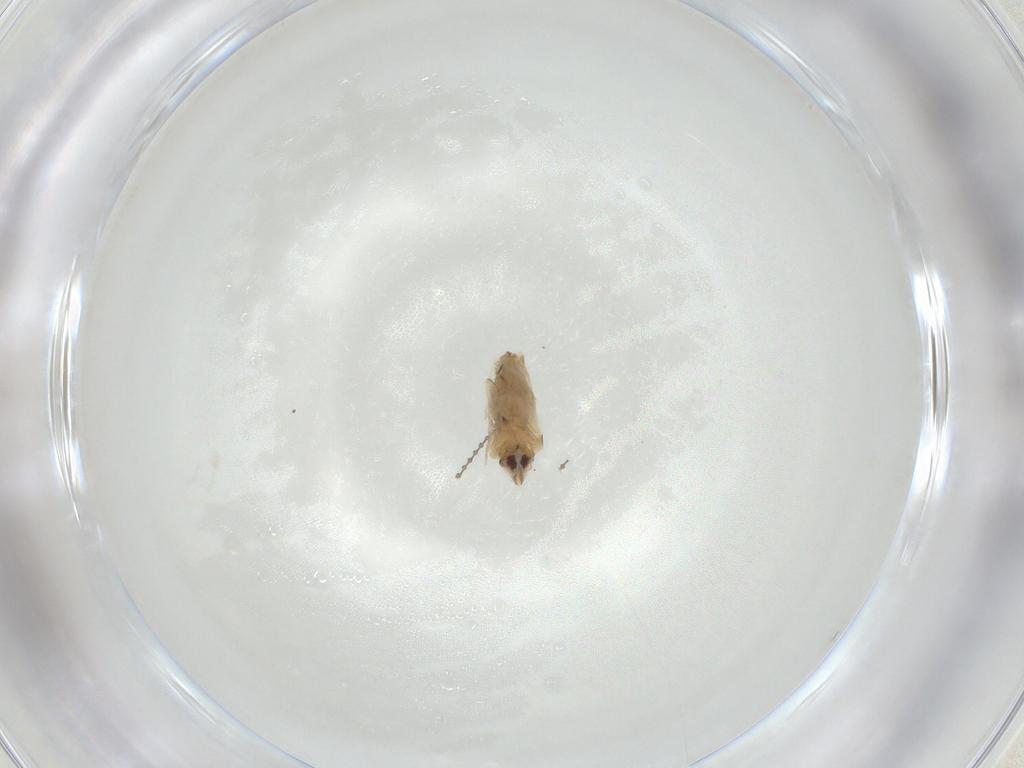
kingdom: Animalia
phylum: Arthropoda
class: Insecta
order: Hemiptera
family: Aleyrodidae
